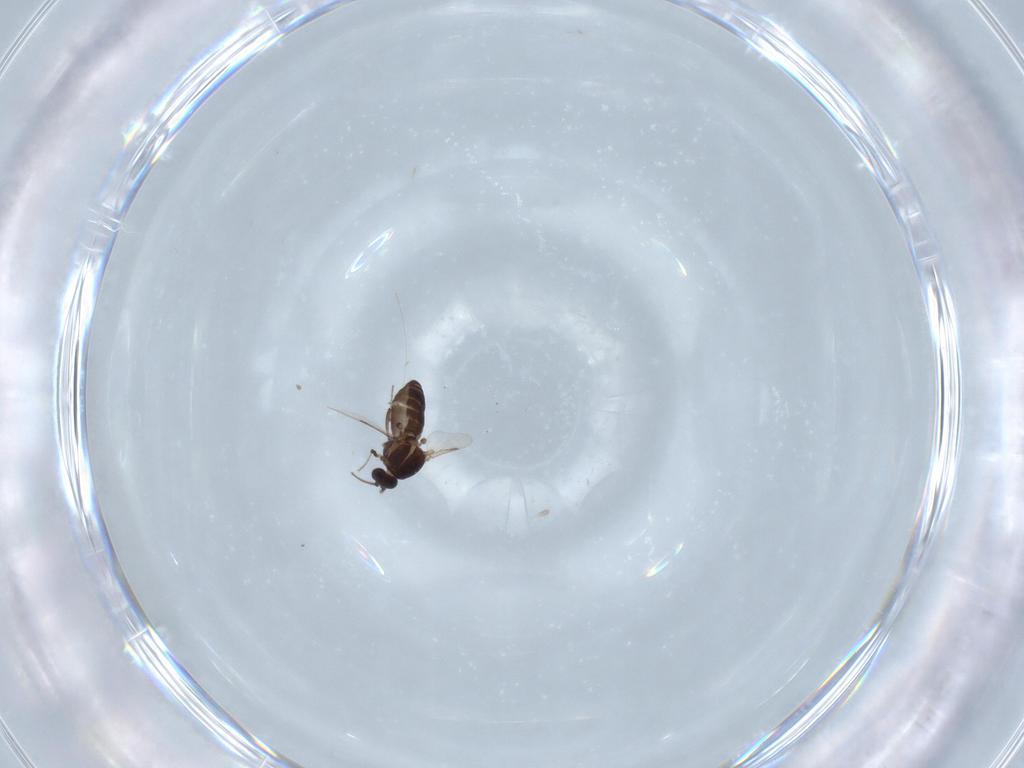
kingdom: Animalia
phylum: Arthropoda
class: Insecta
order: Diptera
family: Ceratopogonidae
